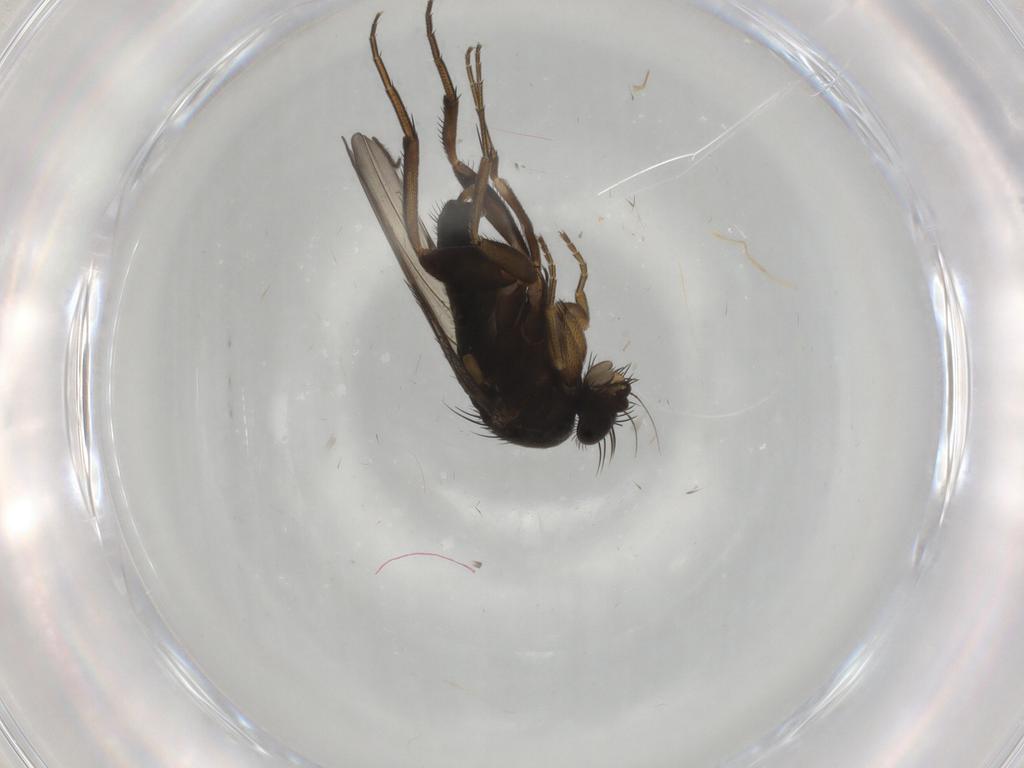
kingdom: Animalia
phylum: Arthropoda
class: Insecta
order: Diptera
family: Phoridae
